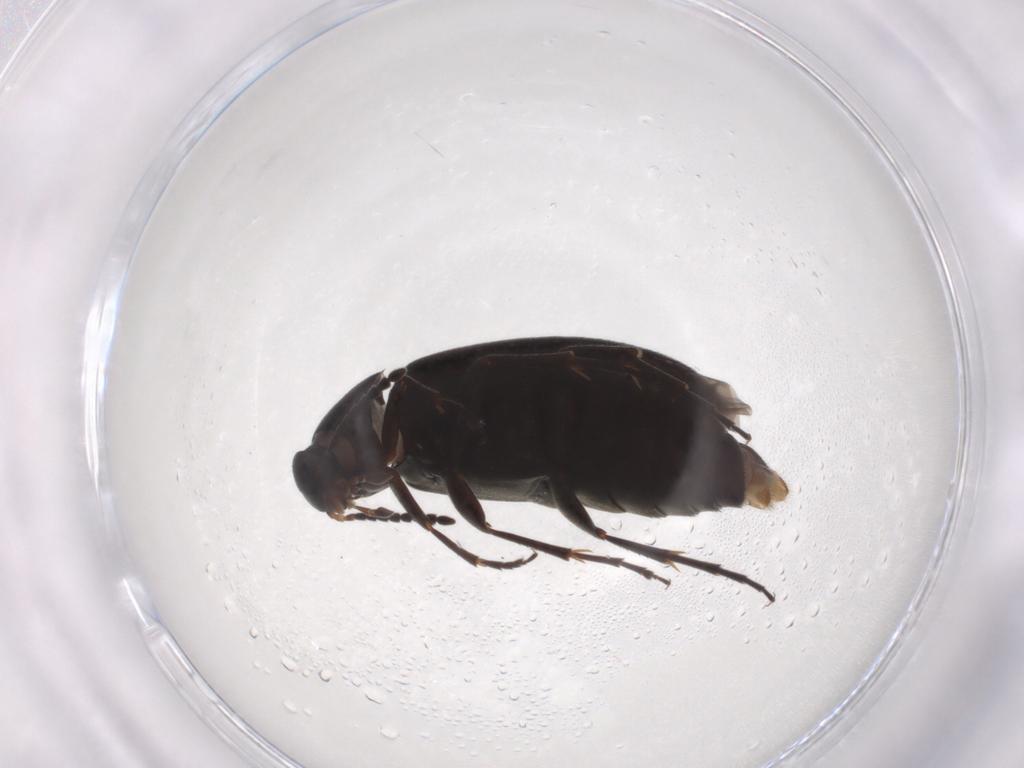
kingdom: Animalia
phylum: Arthropoda
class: Insecta
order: Coleoptera
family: Scraptiidae
